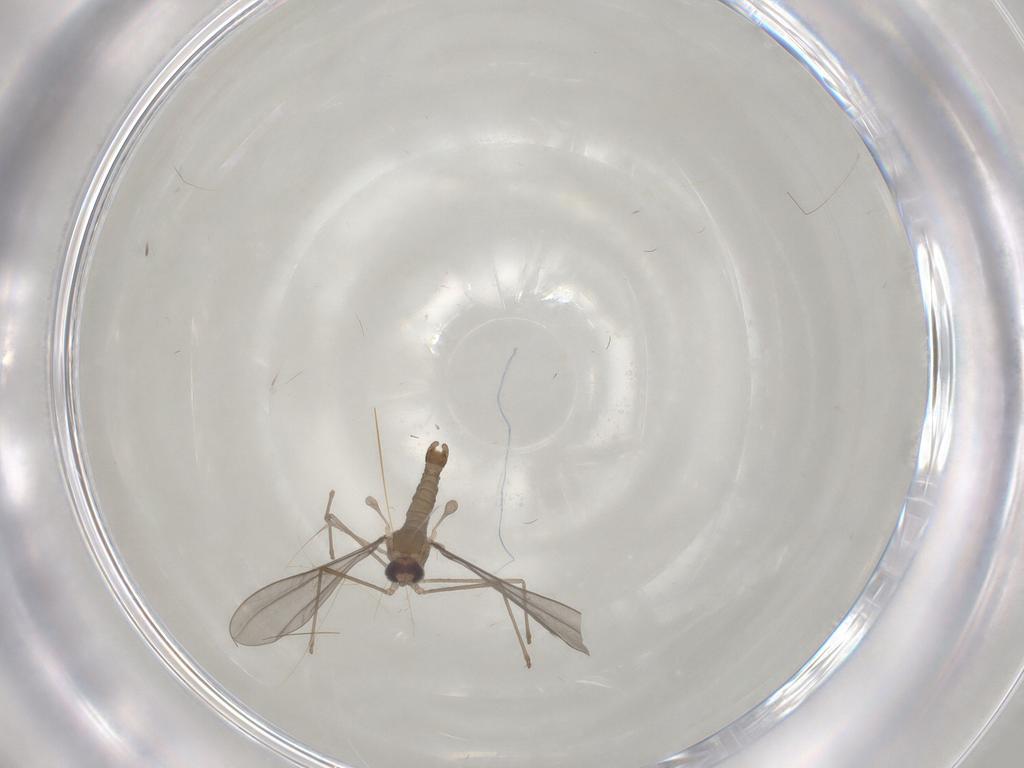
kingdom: Animalia
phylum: Arthropoda
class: Insecta
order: Diptera
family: Cecidomyiidae
